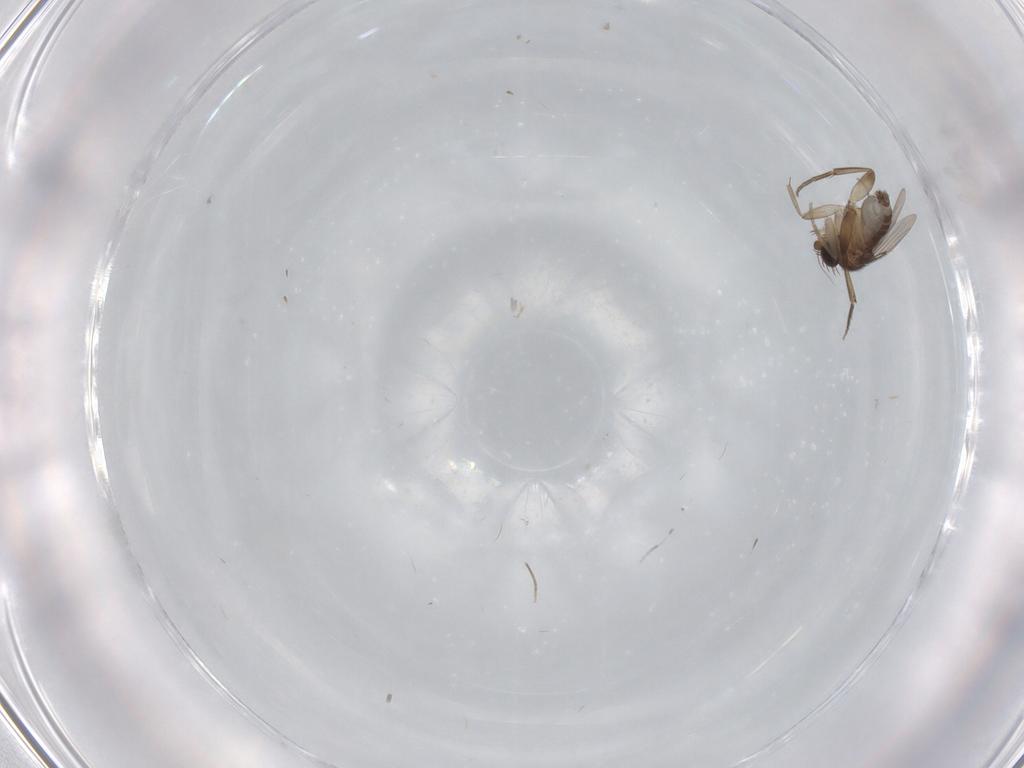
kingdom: Animalia
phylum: Arthropoda
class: Insecta
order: Diptera
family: Phoridae
